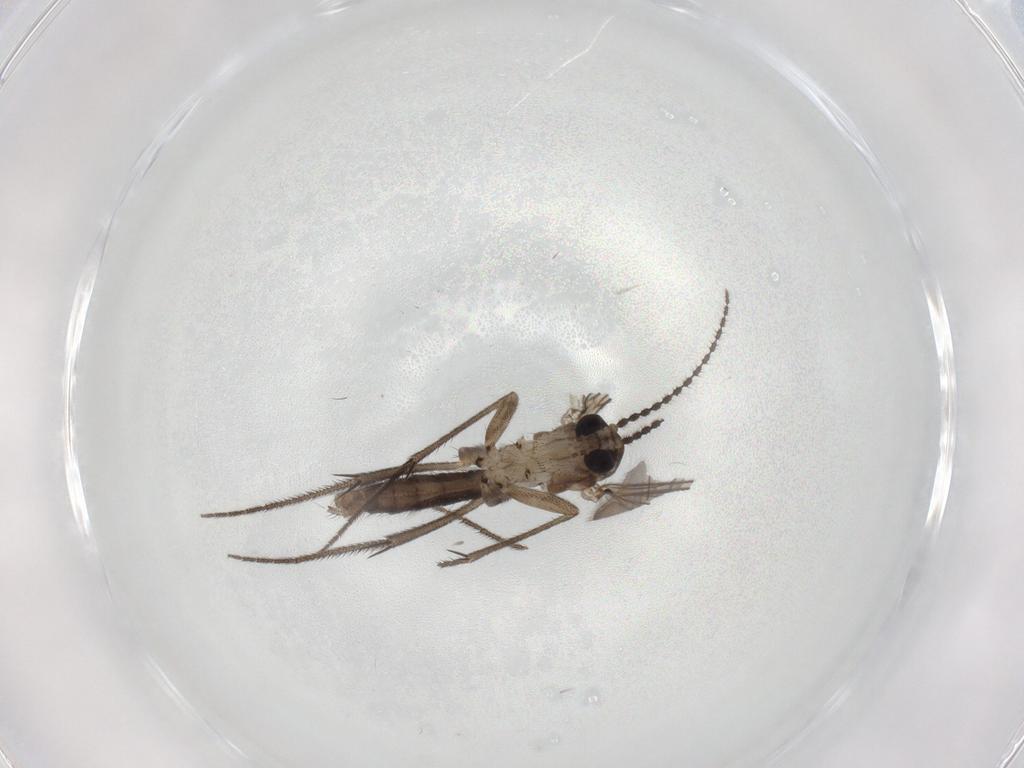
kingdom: Animalia
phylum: Arthropoda
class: Insecta
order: Diptera
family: Mycetophilidae
